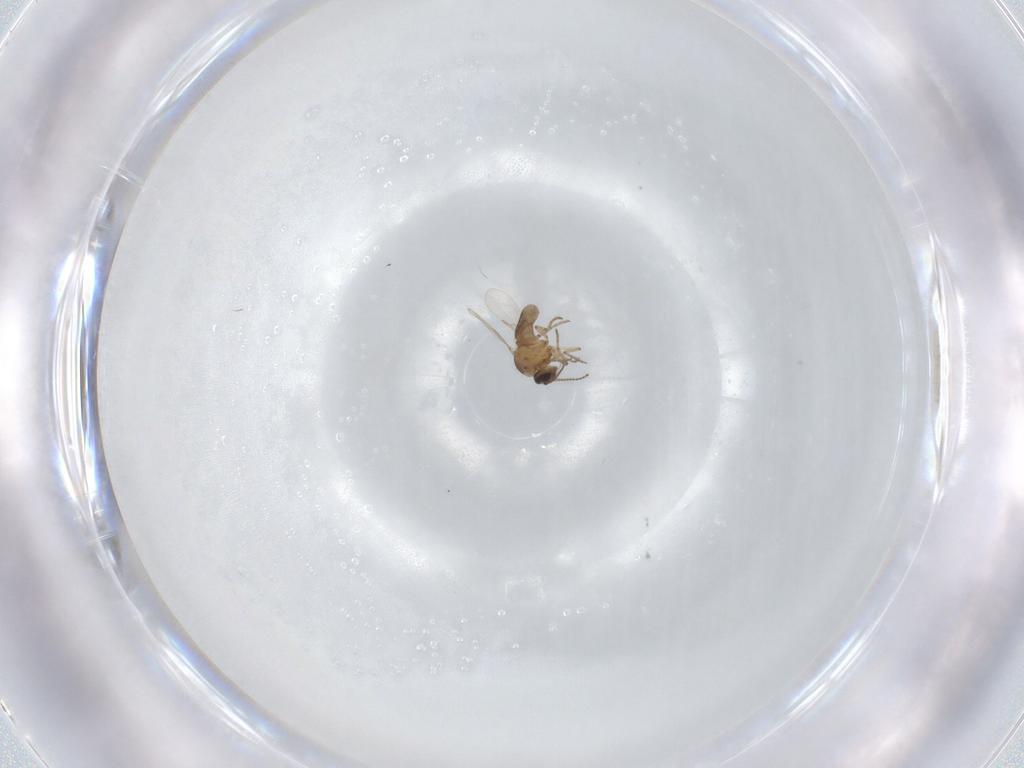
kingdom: Animalia
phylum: Arthropoda
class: Insecta
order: Diptera
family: Ceratopogonidae
